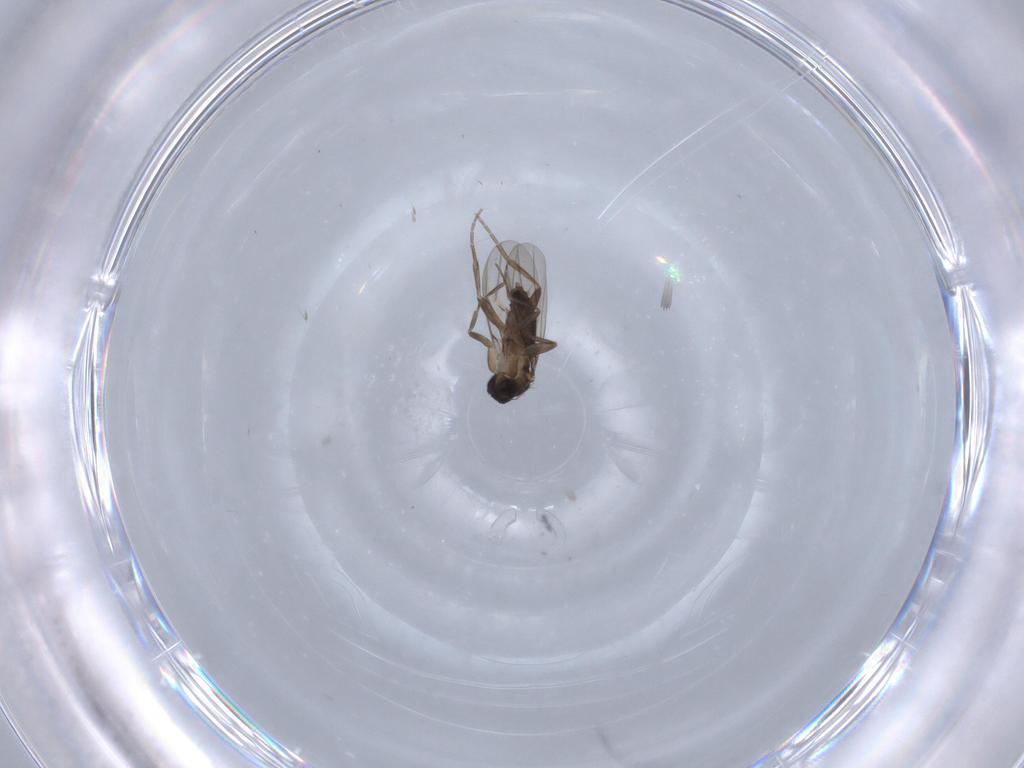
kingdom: Animalia
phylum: Arthropoda
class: Insecta
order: Diptera
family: Phoridae
